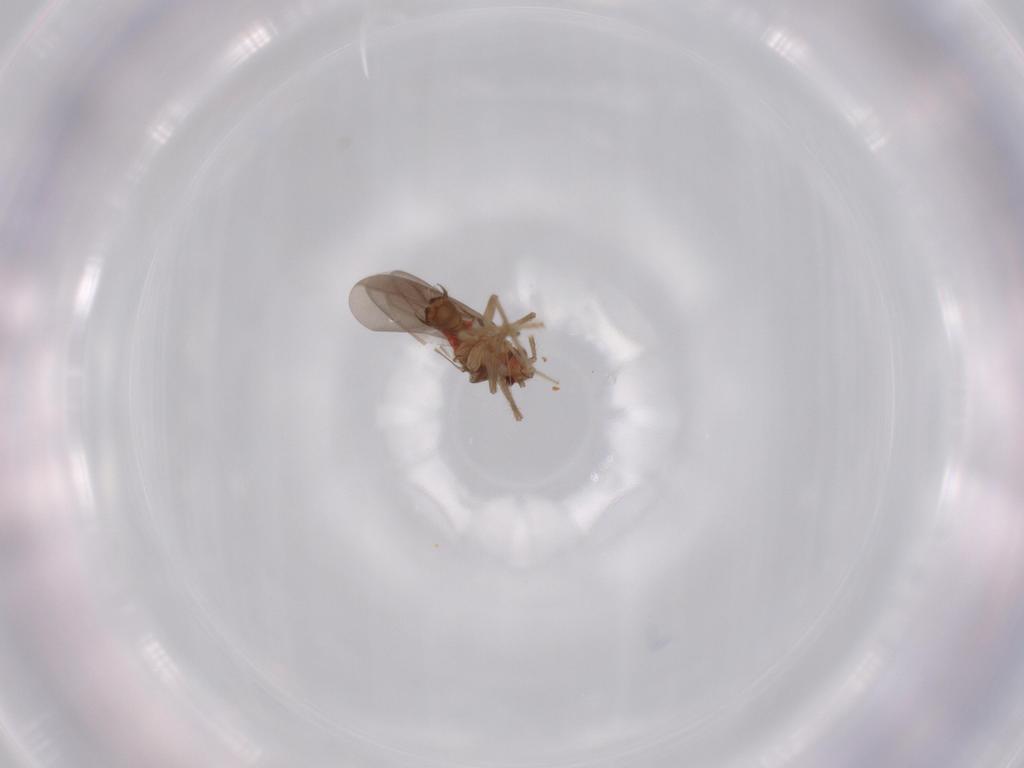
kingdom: Animalia
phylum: Arthropoda
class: Insecta
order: Hemiptera
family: Ceratocombidae
